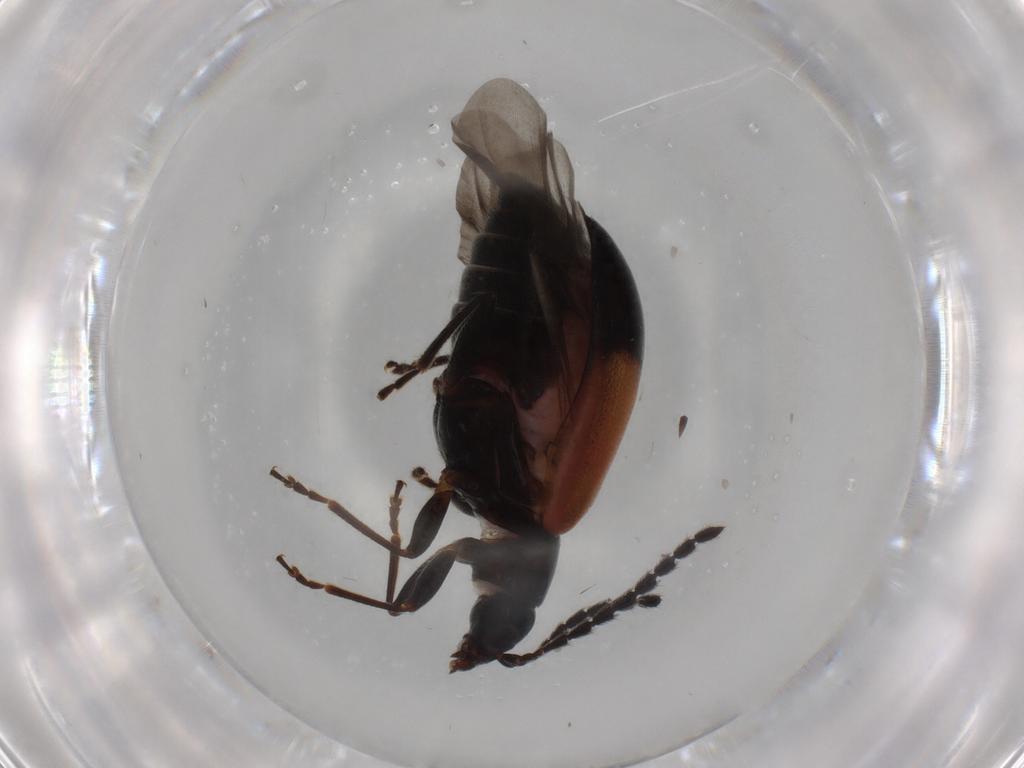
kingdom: Animalia
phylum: Arthropoda
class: Insecta
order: Coleoptera
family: Chrysomelidae
